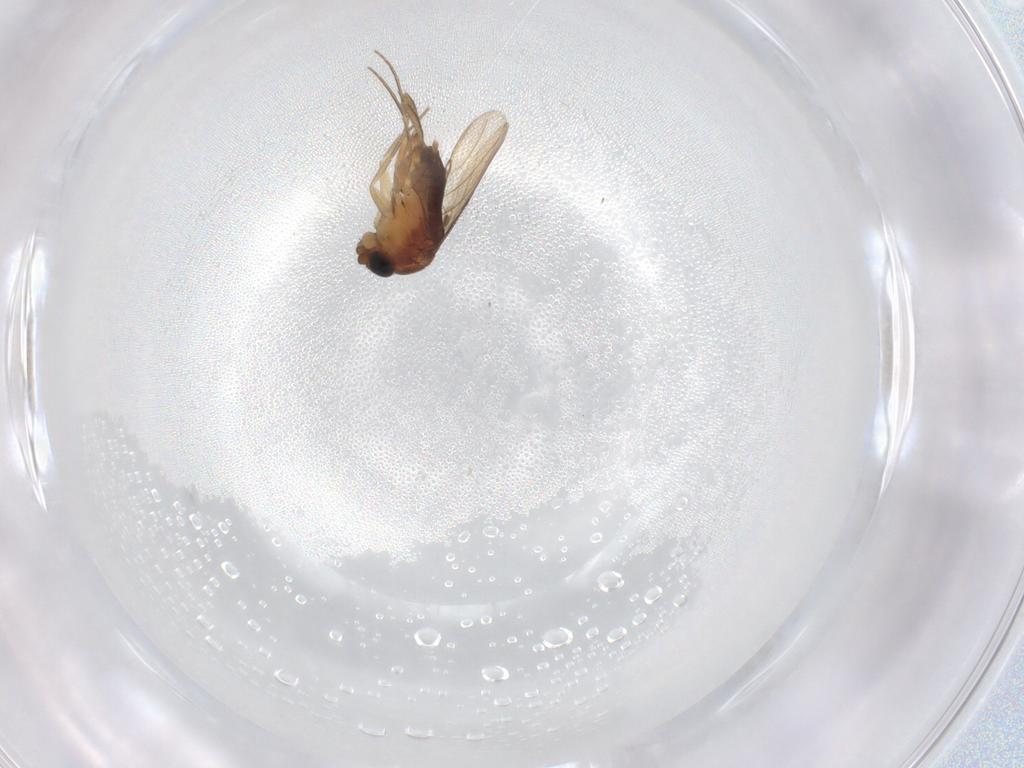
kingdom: Animalia
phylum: Arthropoda
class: Insecta
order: Diptera
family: Phoridae
